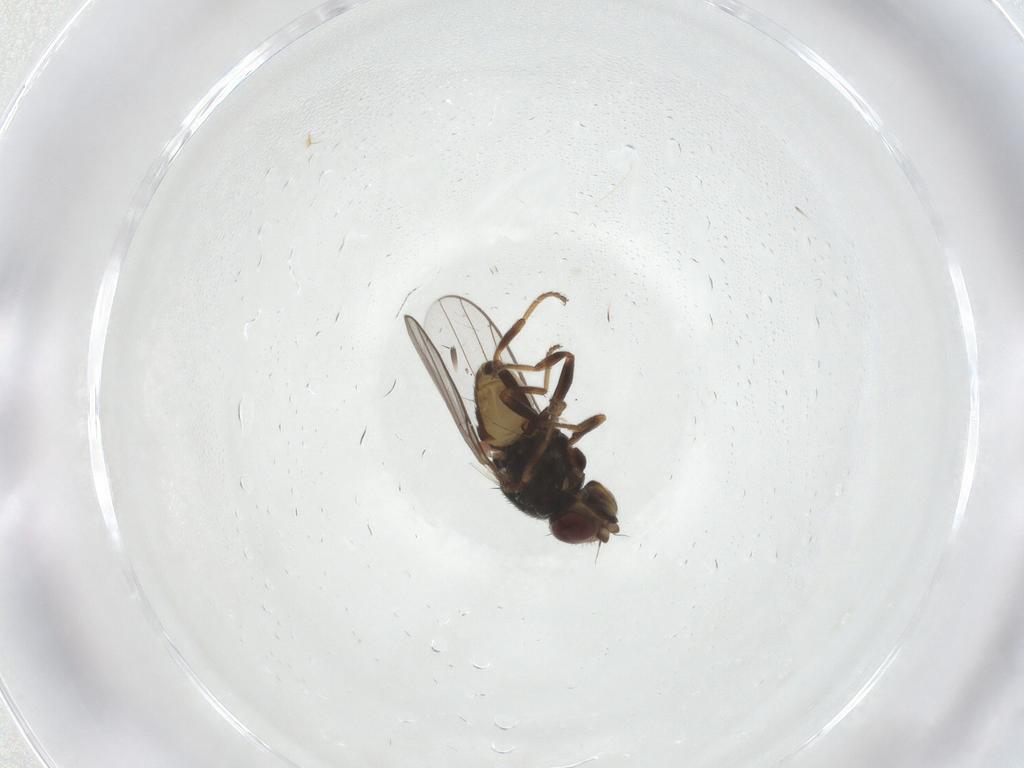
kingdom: Animalia
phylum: Arthropoda
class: Insecta
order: Diptera
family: Chloropidae
